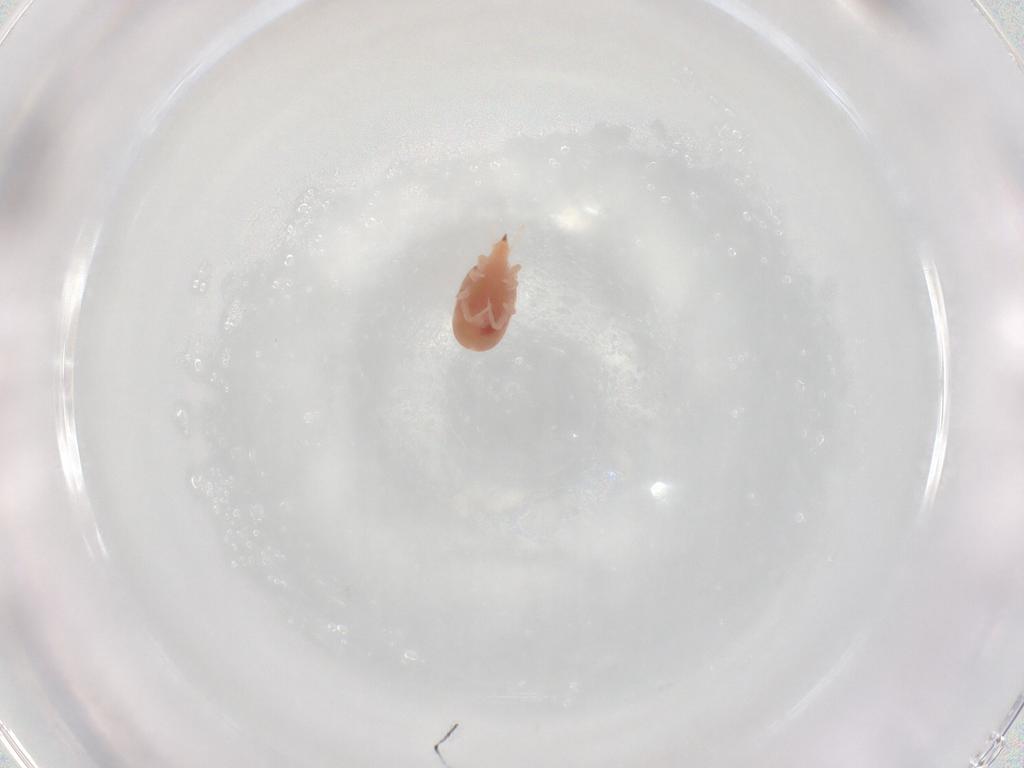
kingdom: Animalia
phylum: Arthropoda
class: Arachnida
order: Trombidiformes
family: Bdellidae
